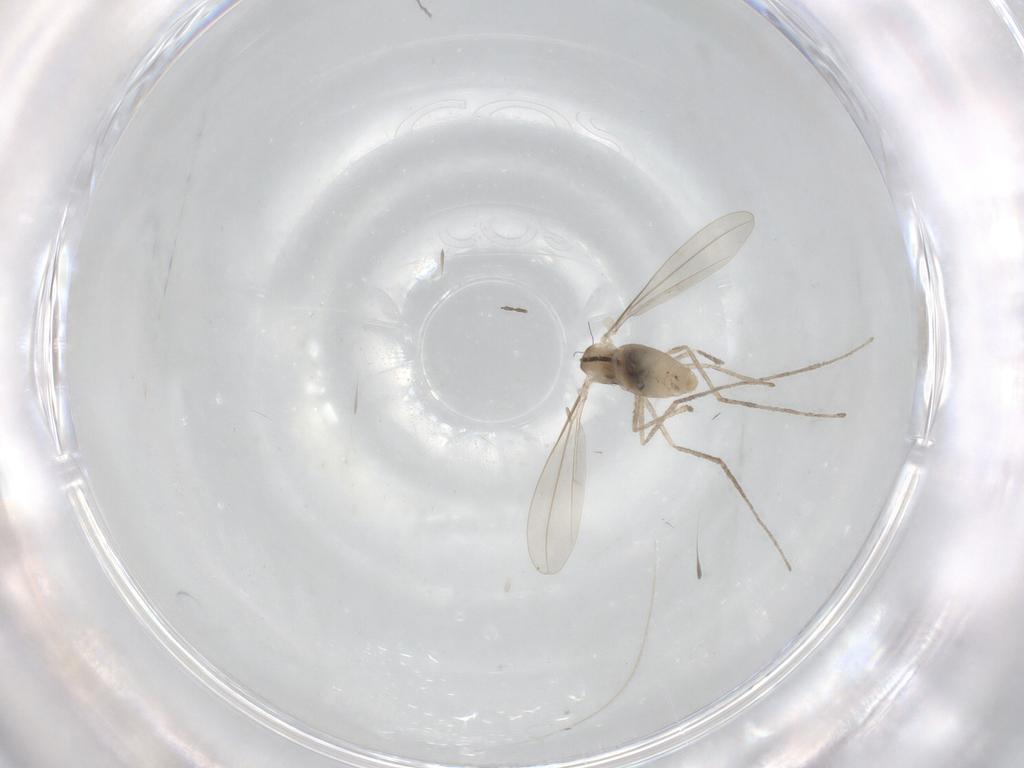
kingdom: Animalia
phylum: Arthropoda
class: Insecta
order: Diptera
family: Cecidomyiidae
